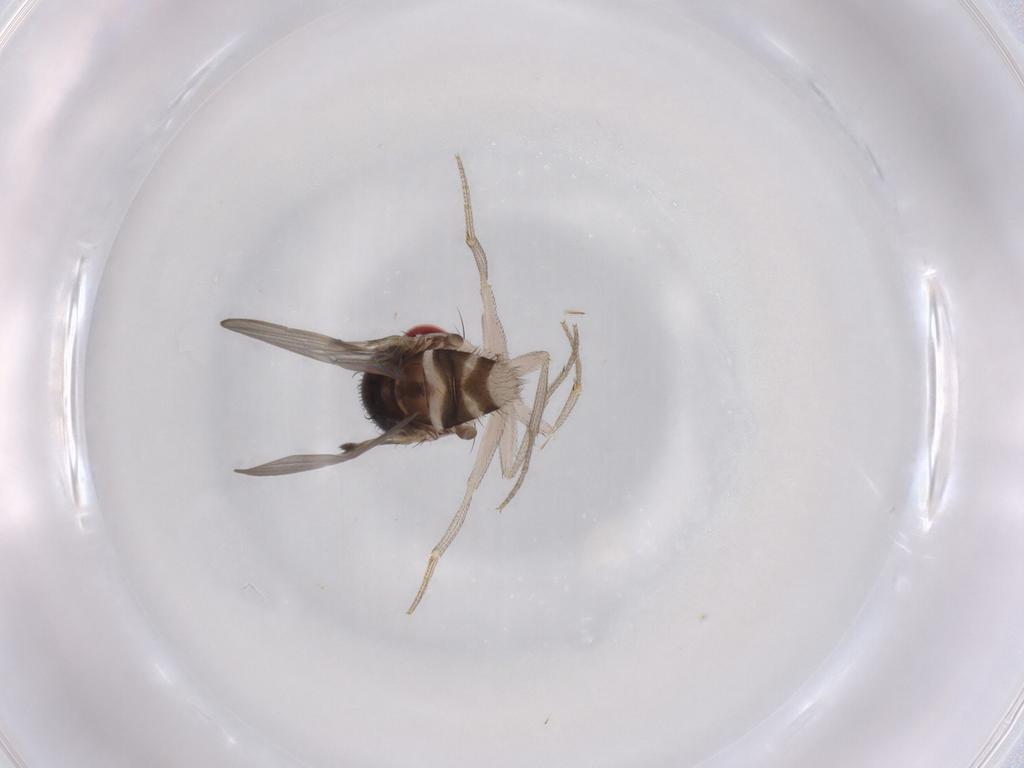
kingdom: Animalia
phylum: Arthropoda
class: Insecta
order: Diptera
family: Drosophilidae
